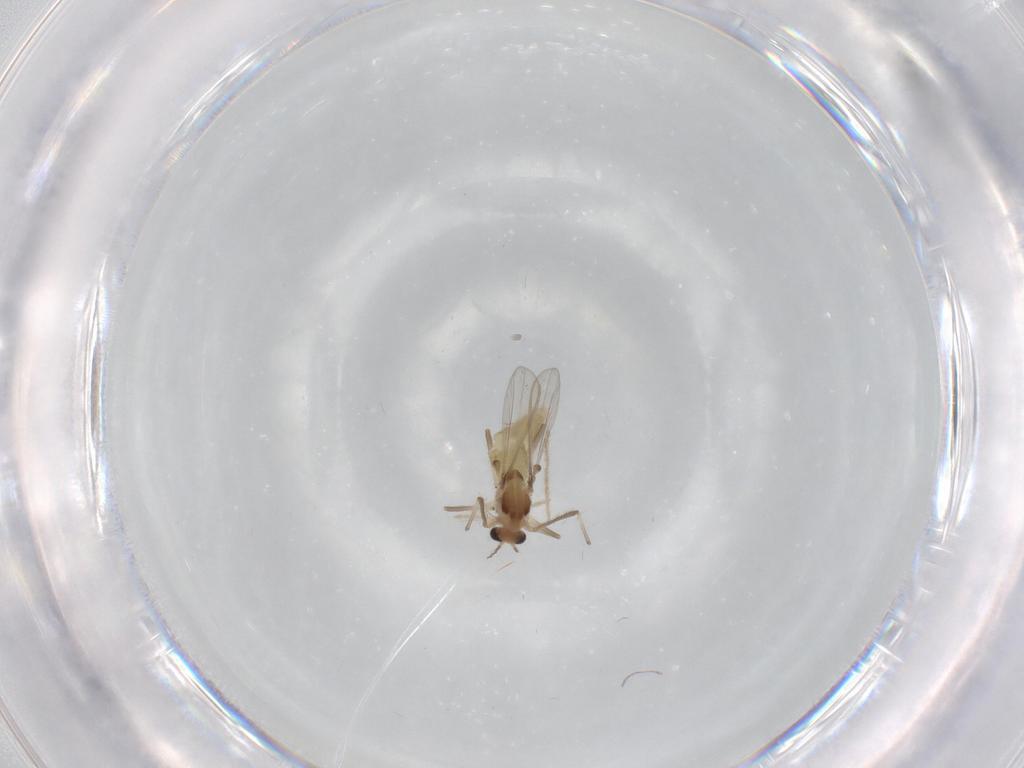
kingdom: Animalia
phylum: Arthropoda
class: Insecta
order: Diptera
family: Chironomidae
